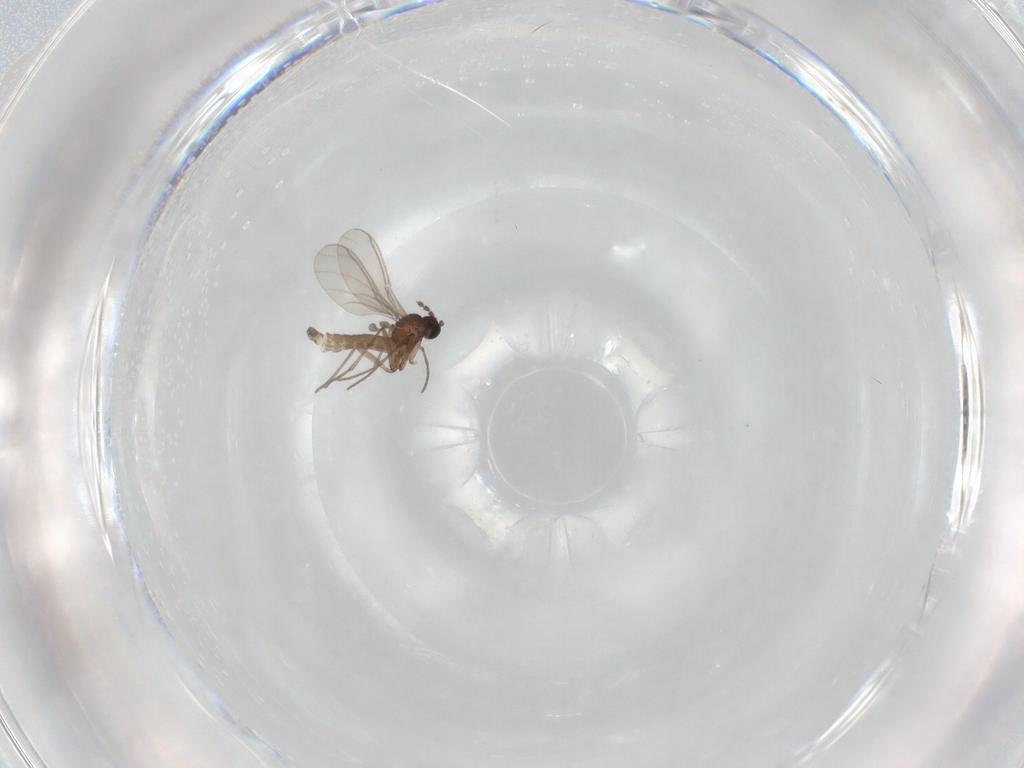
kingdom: Animalia
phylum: Arthropoda
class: Insecta
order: Diptera
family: Sciaridae
